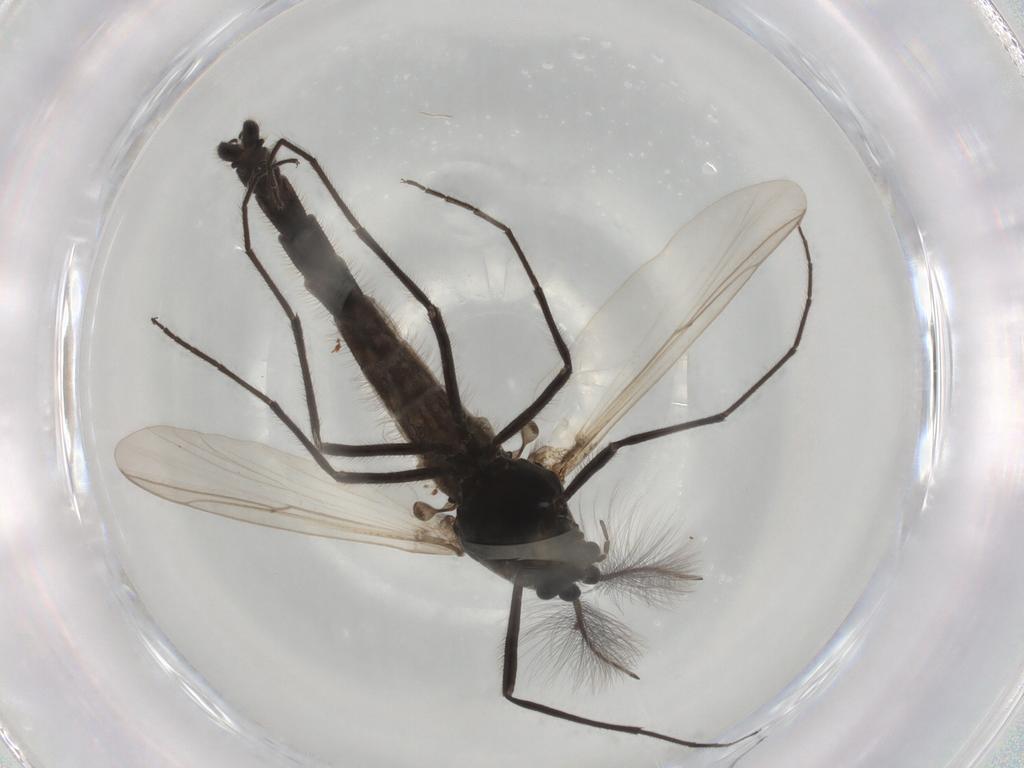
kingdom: Animalia
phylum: Arthropoda
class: Insecta
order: Diptera
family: Chironomidae
